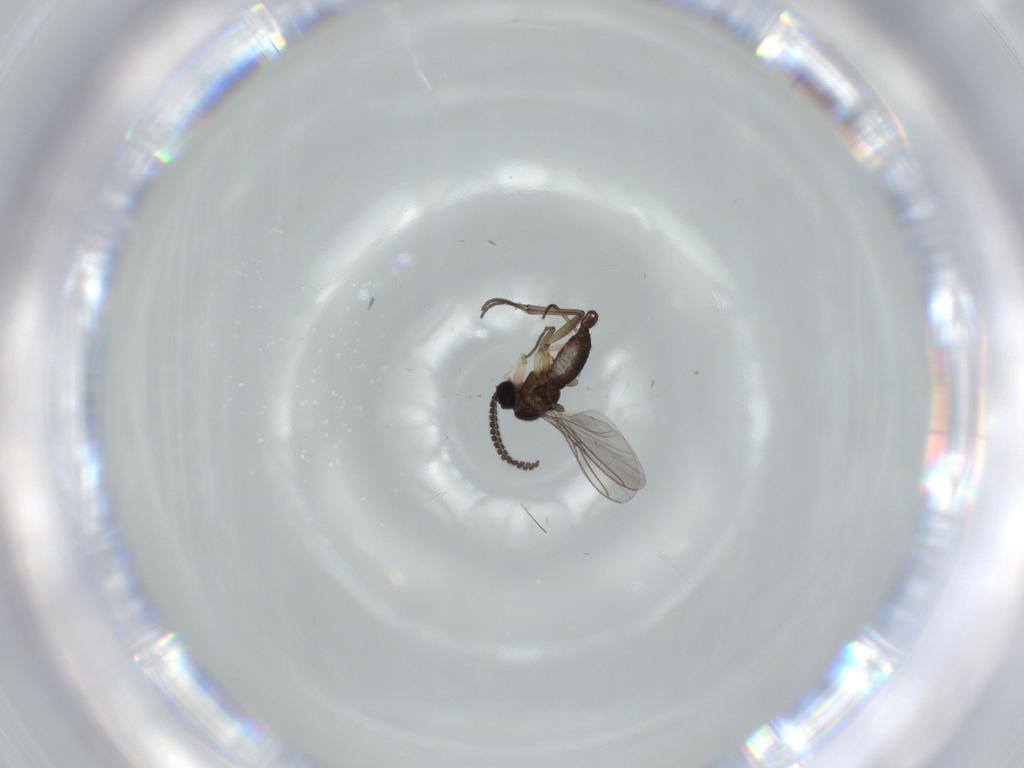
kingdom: Animalia
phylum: Arthropoda
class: Insecta
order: Diptera
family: Sciaridae
